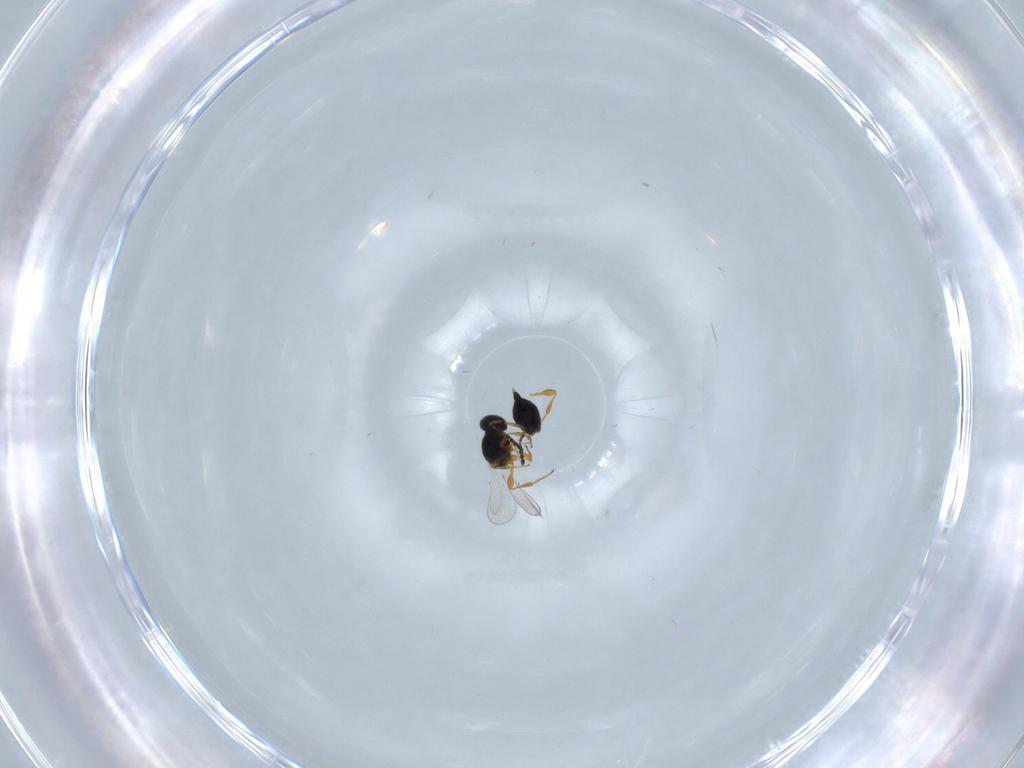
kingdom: Animalia
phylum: Arthropoda
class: Insecta
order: Hymenoptera
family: Platygastridae
